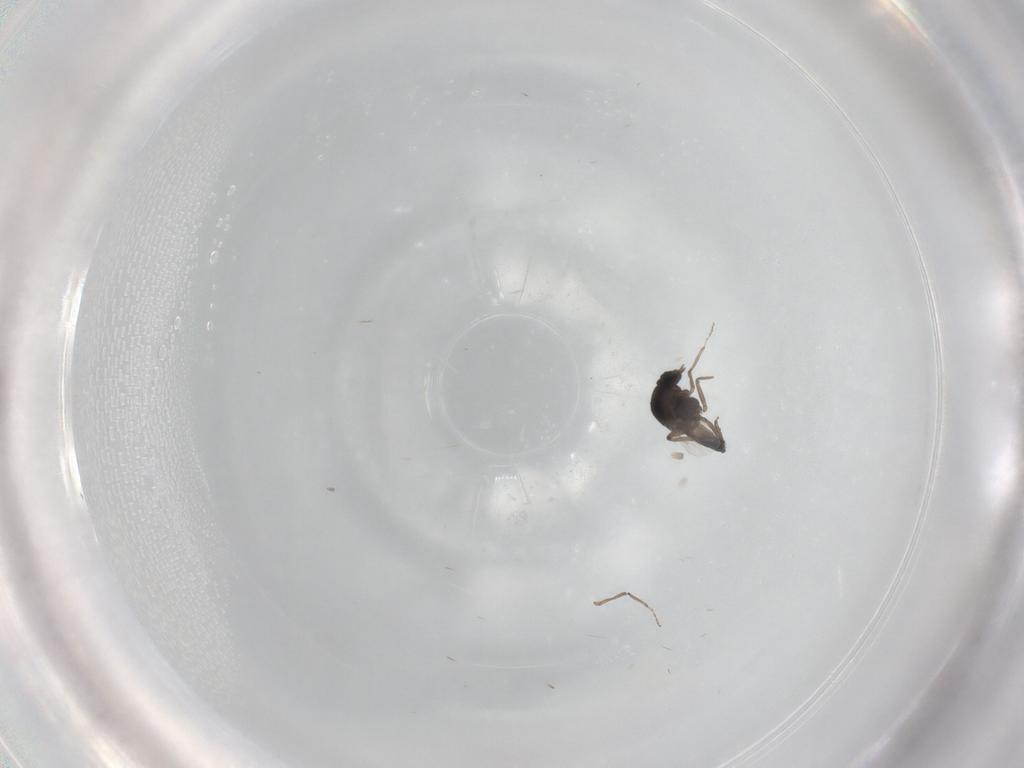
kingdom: Animalia
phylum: Arthropoda
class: Insecta
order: Diptera
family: Ceratopogonidae
